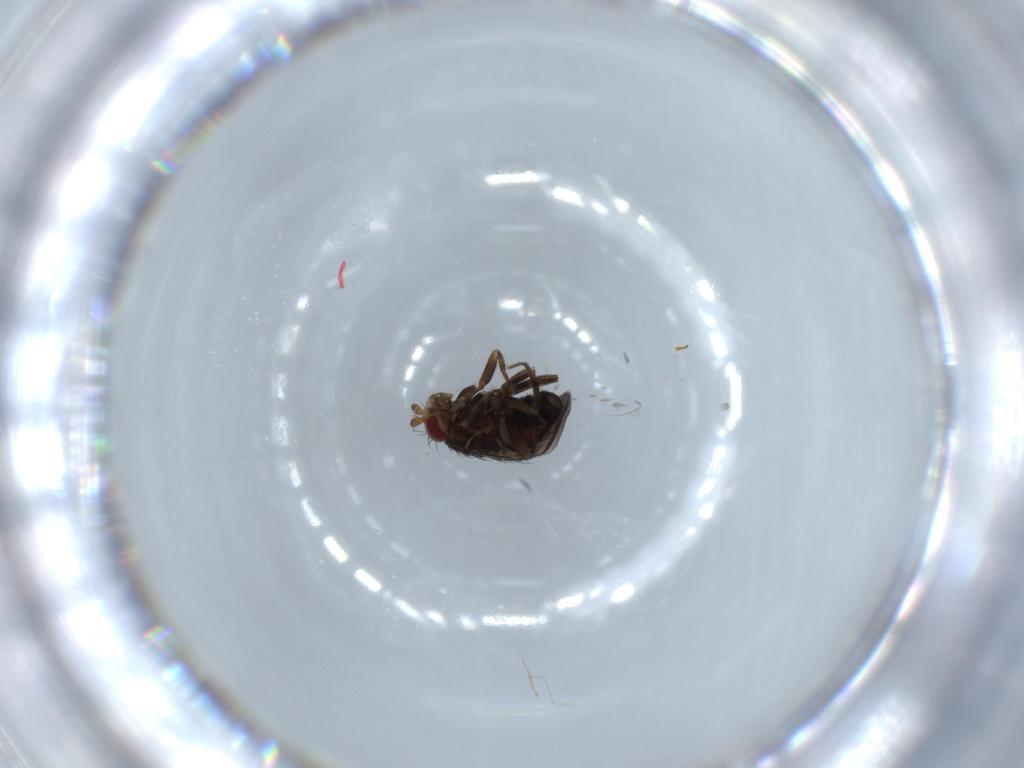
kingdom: Animalia
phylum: Arthropoda
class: Insecta
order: Diptera
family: Sphaeroceridae
